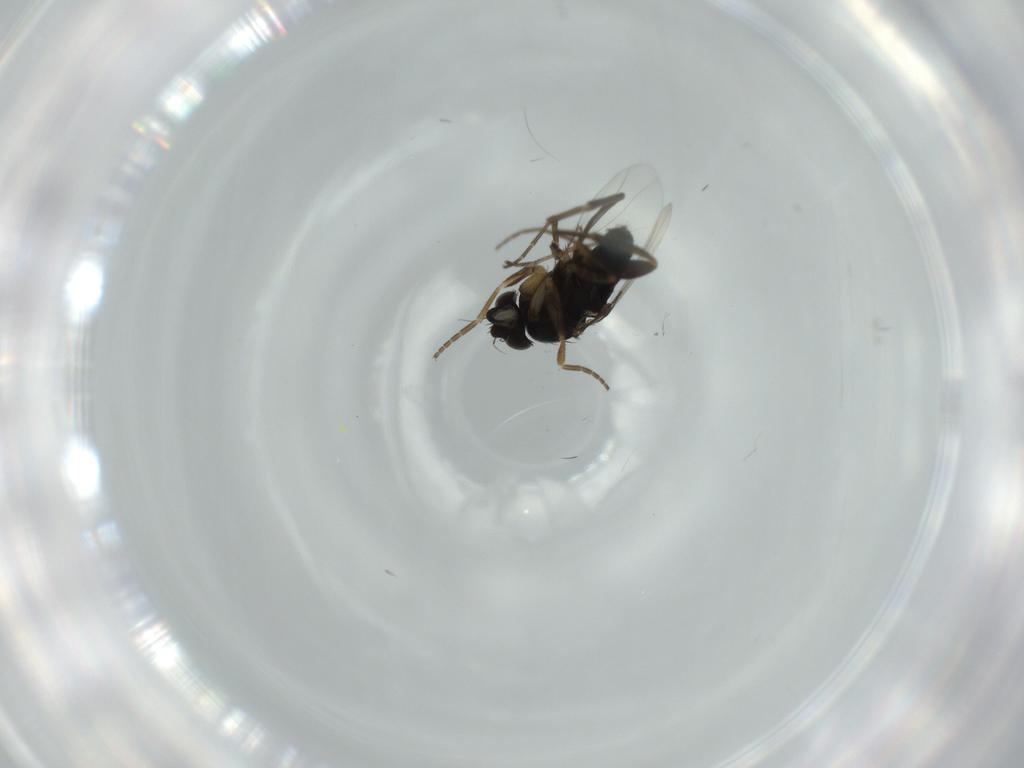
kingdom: Animalia
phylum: Arthropoda
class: Insecta
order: Diptera
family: Phoridae
